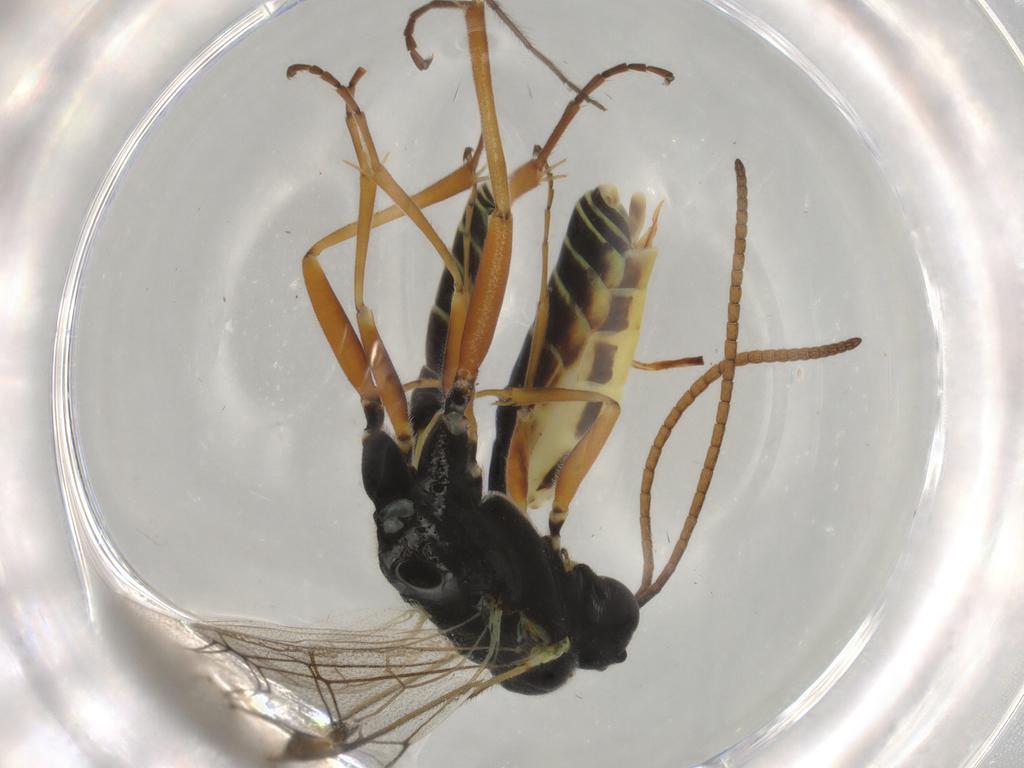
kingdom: Animalia
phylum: Arthropoda
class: Insecta
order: Hymenoptera
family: Ichneumonidae
